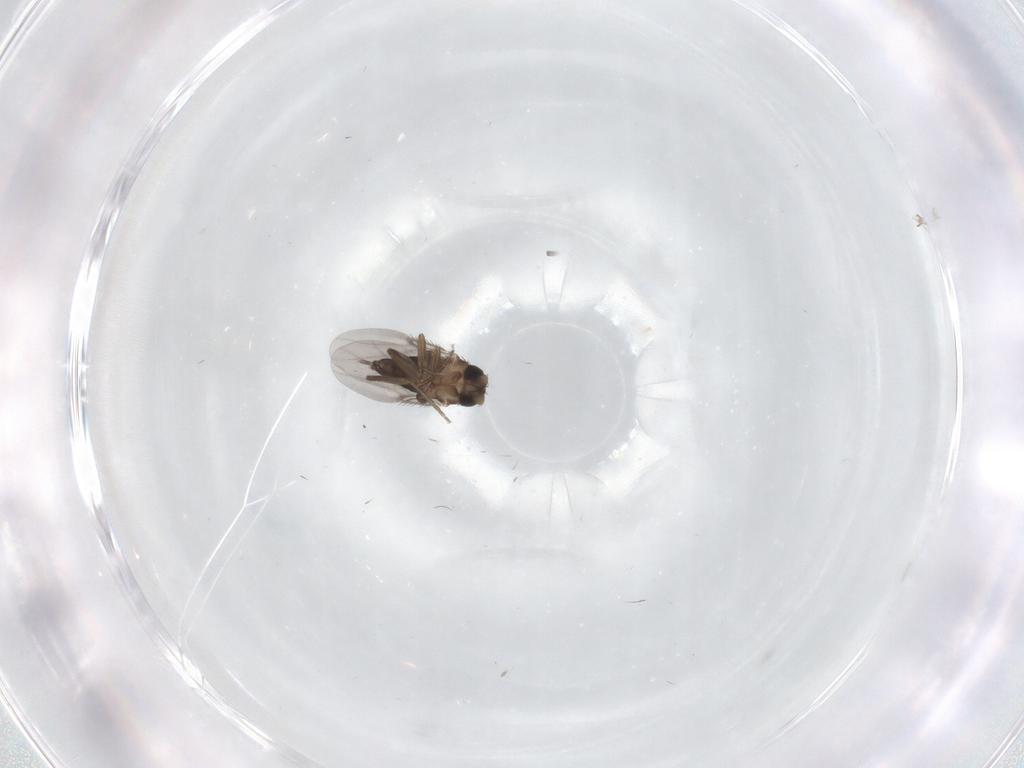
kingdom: Animalia
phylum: Arthropoda
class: Insecta
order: Diptera
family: Phoridae
